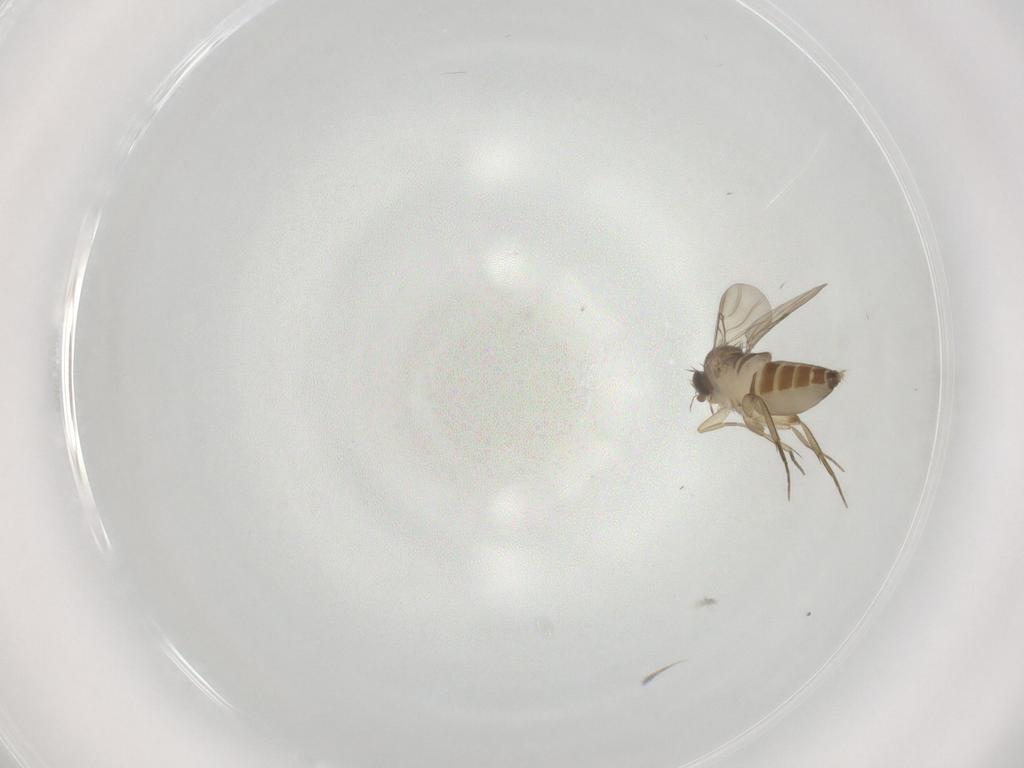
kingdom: Animalia
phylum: Arthropoda
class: Insecta
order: Diptera
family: Phoridae
